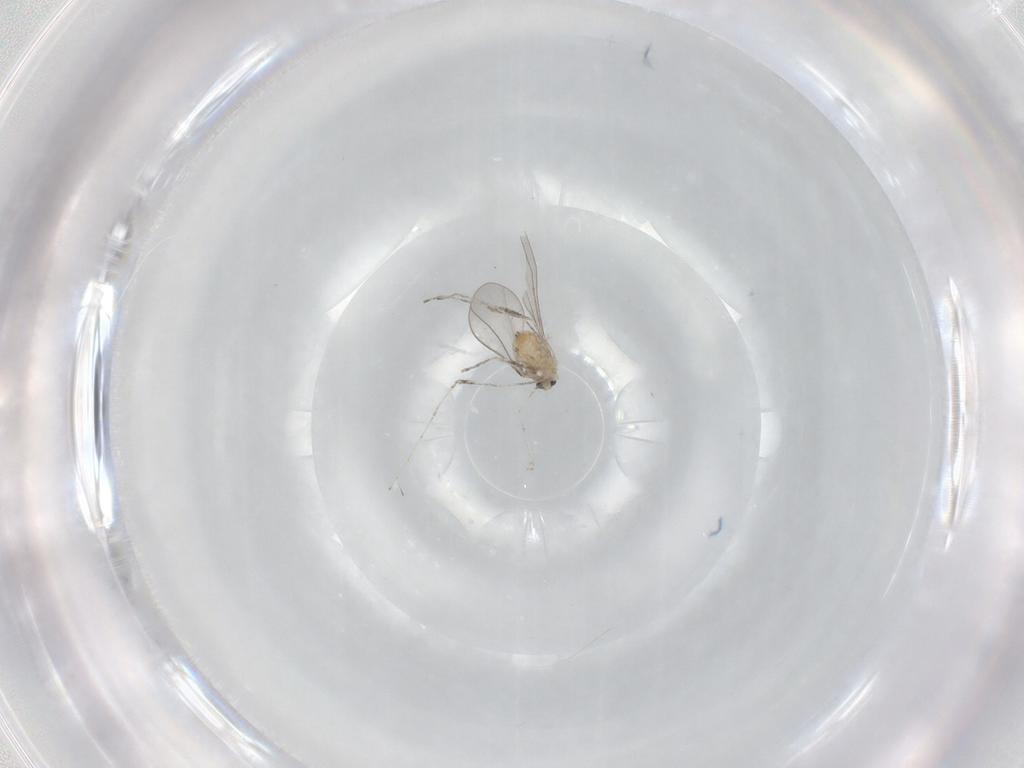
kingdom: Animalia
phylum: Arthropoda
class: Insecta
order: Diptera
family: Cecidomyiidae
